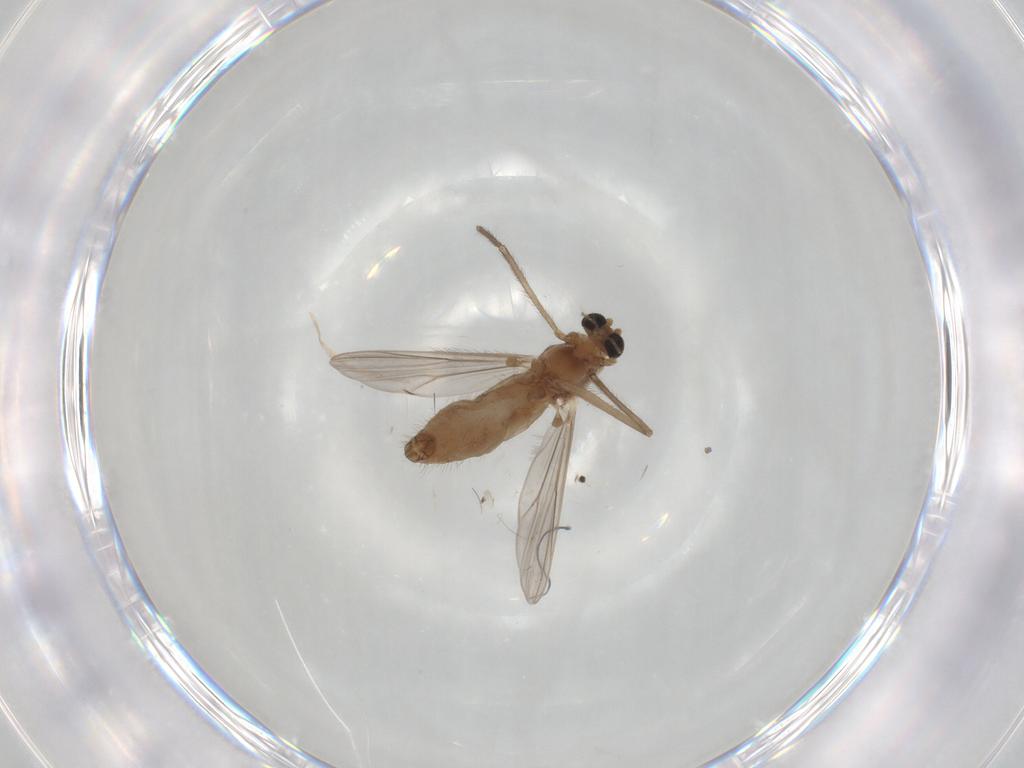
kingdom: Animalia
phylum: Arthropoda
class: Insecta
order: Diptera
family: Chironomidae
